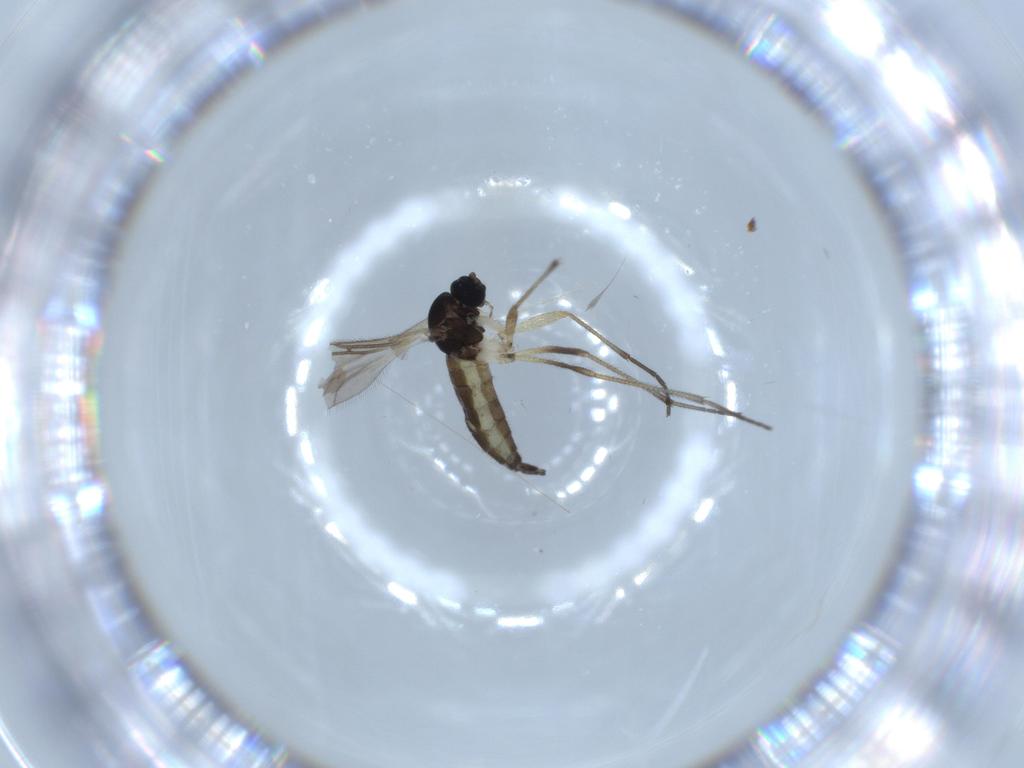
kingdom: Animalia
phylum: Arthropoda
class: Insecta
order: Diptera
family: Sciaridae
